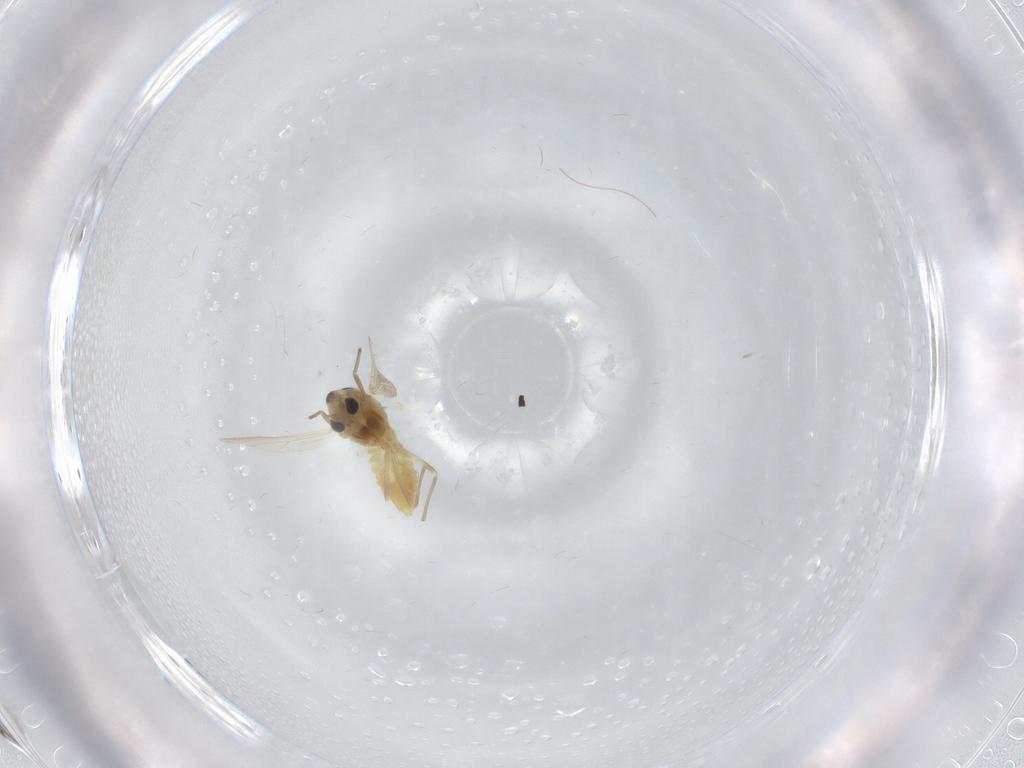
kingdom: Animalia
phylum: Arthropoda
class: Insecta
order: Diptera
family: Chironomidae
